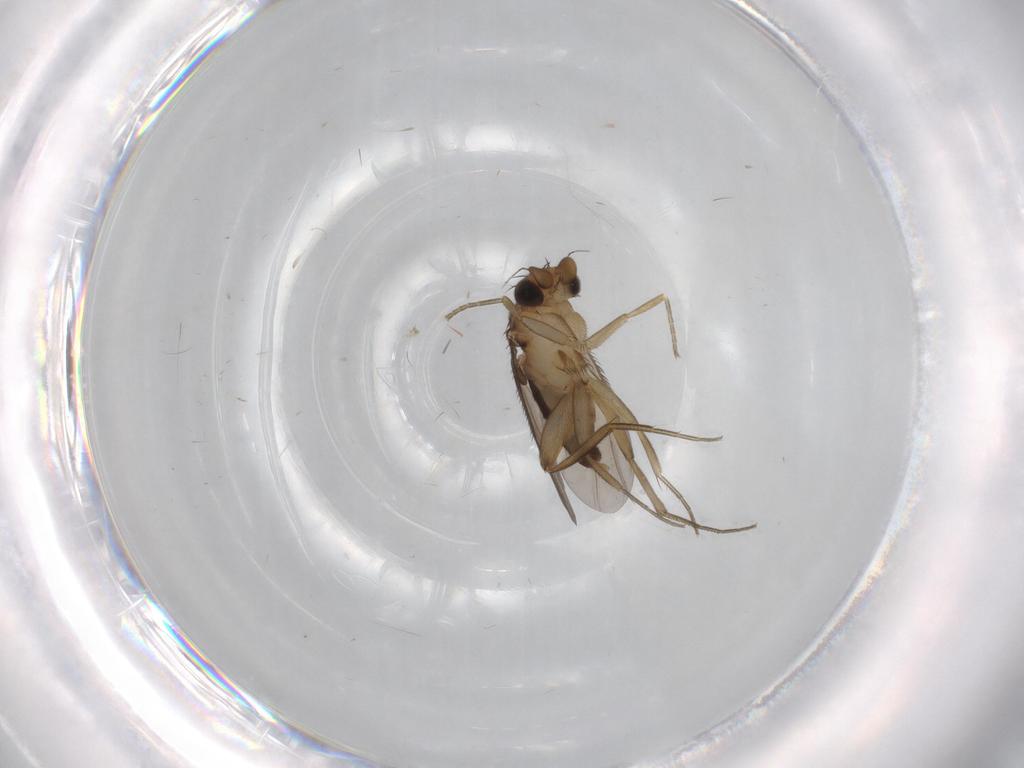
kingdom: Animalia
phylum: Arthropoda
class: Insecta
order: Diptera
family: Phoridae
